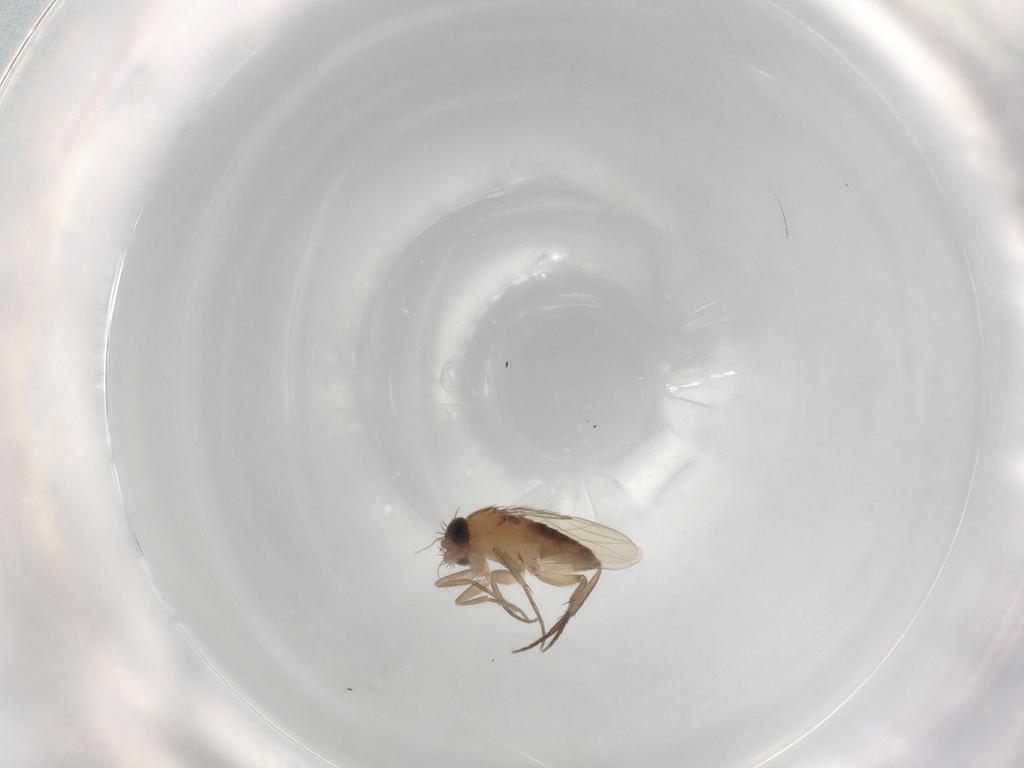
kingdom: Animalia
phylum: Arthropoda
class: Insecta
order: Diptera
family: Phoridae
